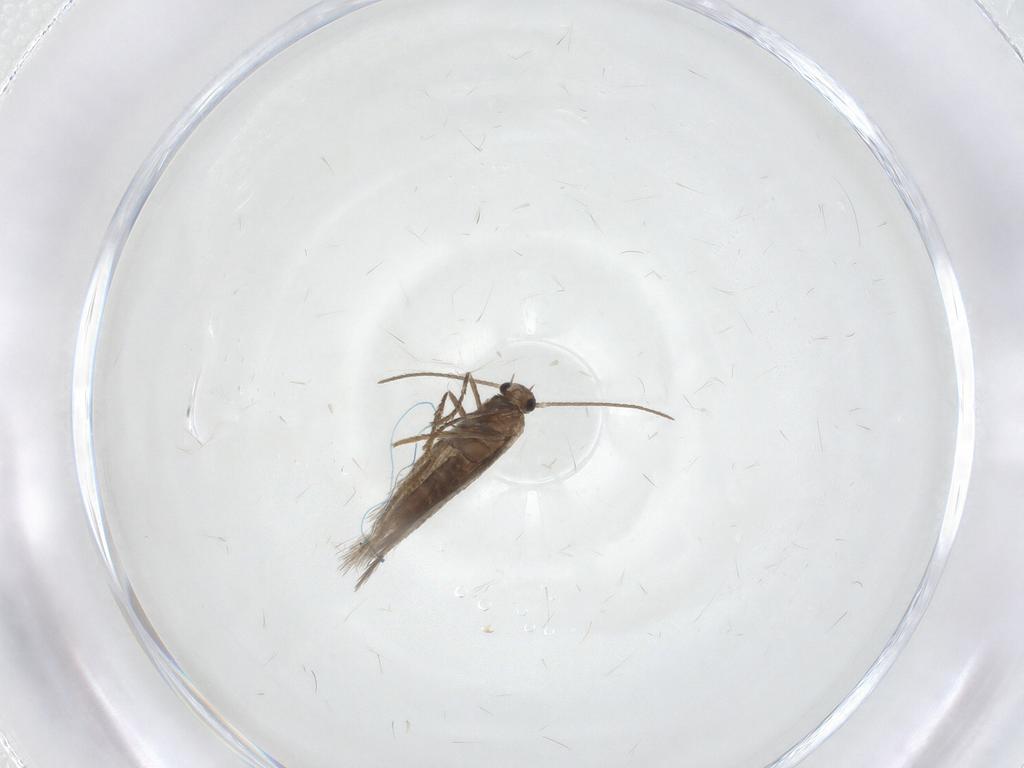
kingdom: Animalia
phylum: Arthropoda
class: Insecta
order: Lepidoptera
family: Heliozelidae
